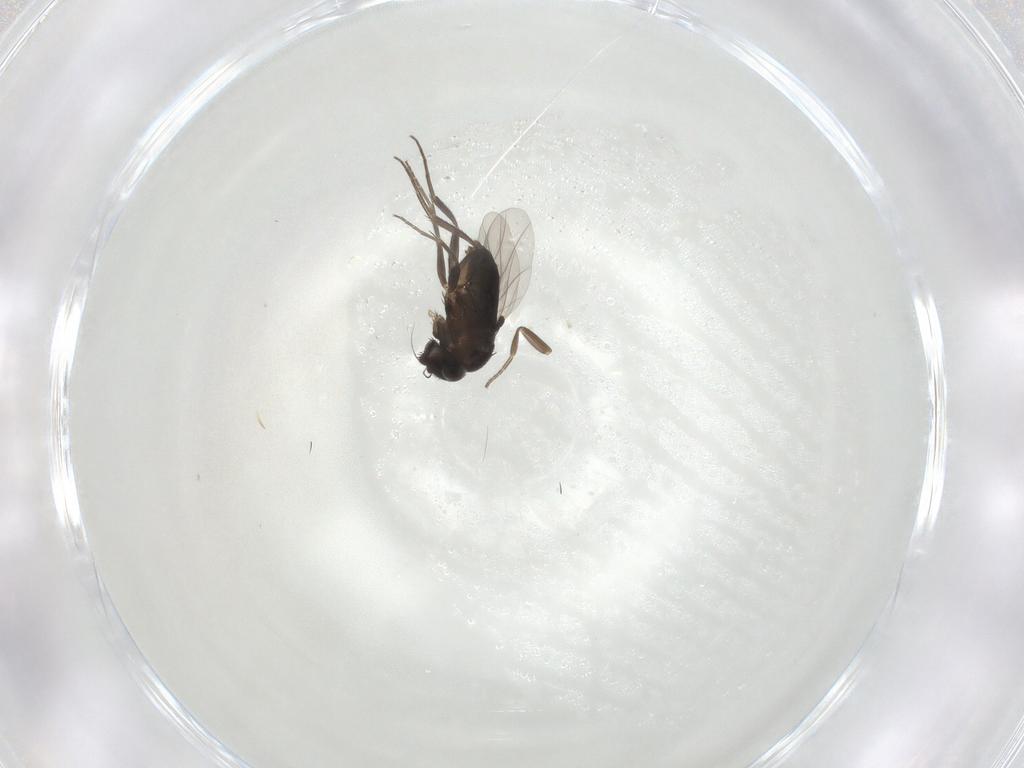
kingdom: Animalia
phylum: Arthropoda
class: Insecta
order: Diptera
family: Phoridae
